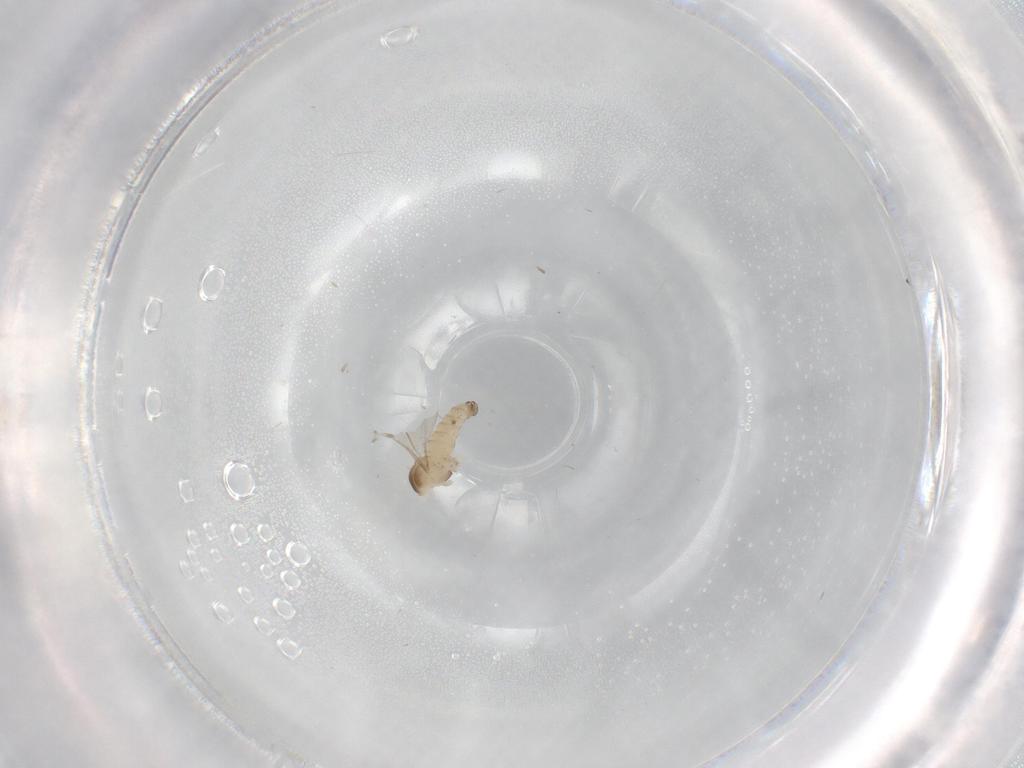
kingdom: Animalia
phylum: Arthropoda
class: Insecta
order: Diptera
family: Cecidomyiidae
